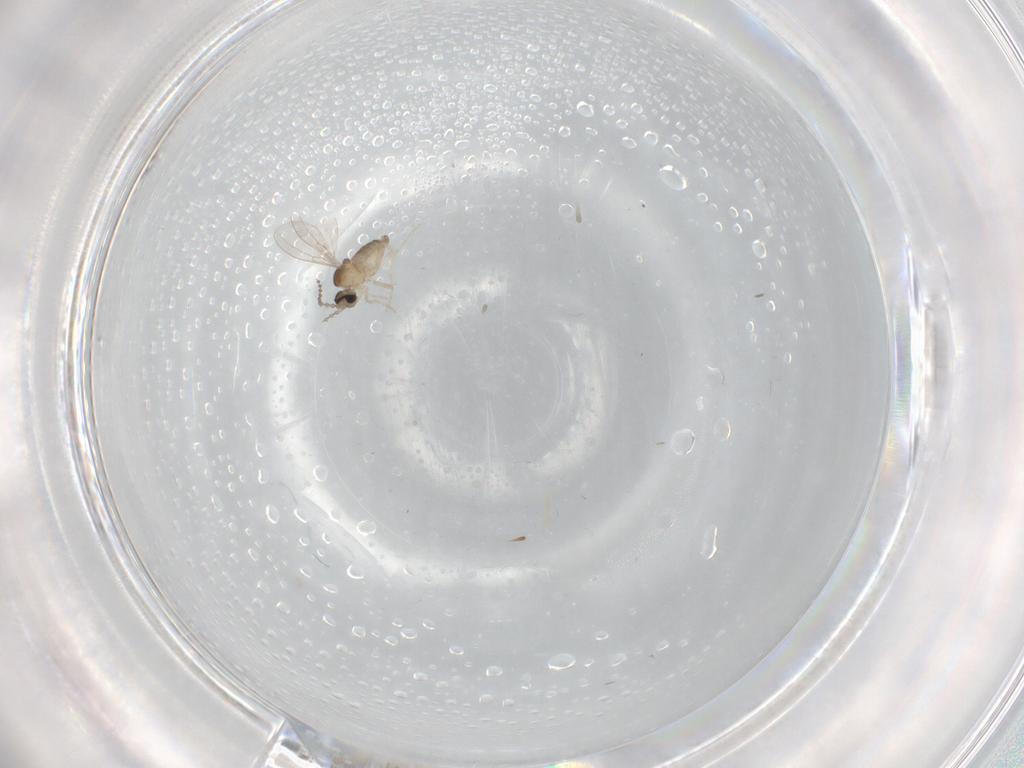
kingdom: Animalia
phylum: Arthropoda
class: Insecta
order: Diptera
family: Cecidomyiidae
